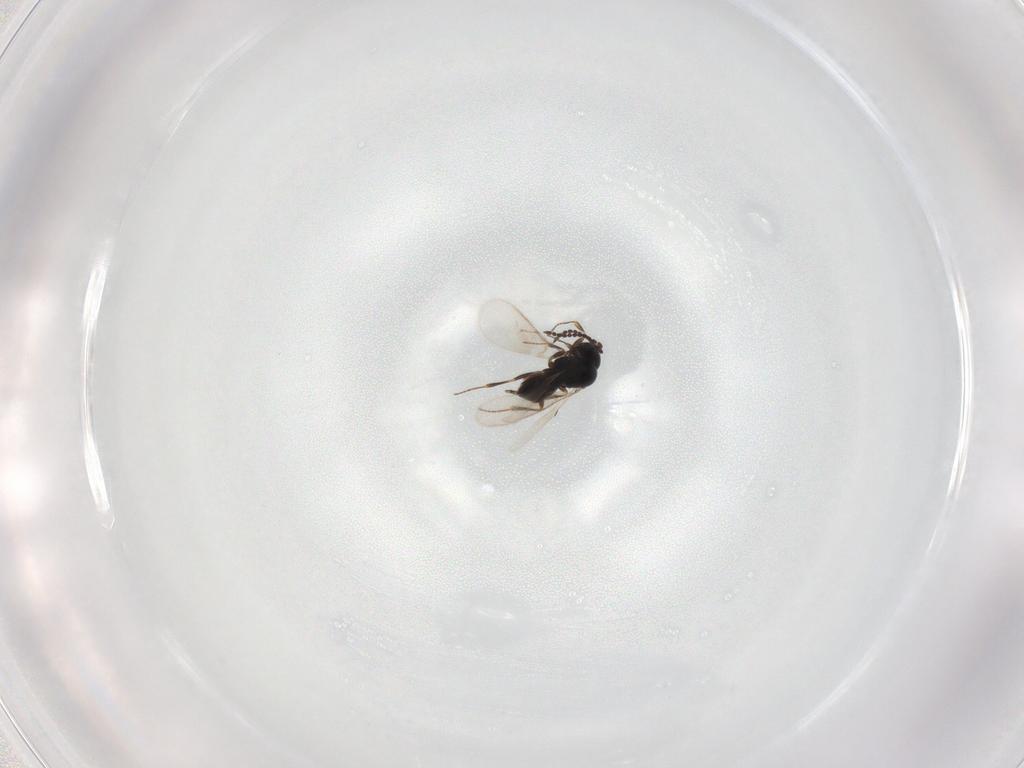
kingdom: Animalia
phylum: Arthropoda
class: Insecta
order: Hymenoptera
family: Scelionidae
